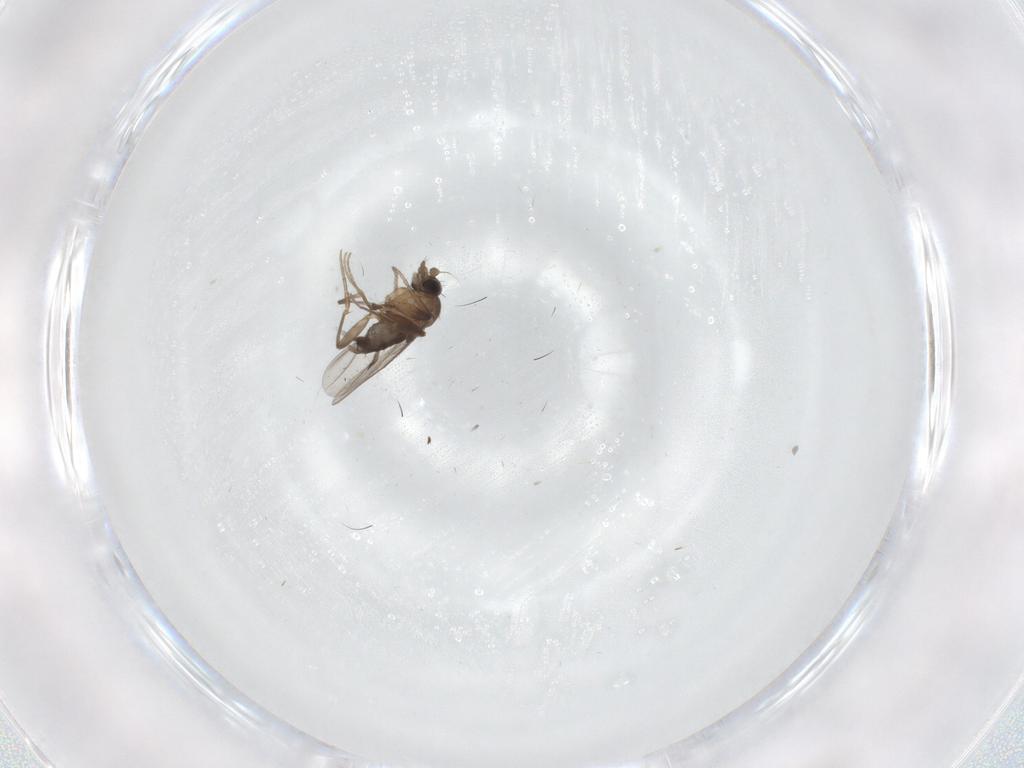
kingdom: Animalia
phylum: Arthropoda
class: Insecta
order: Diptera
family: Phoridae
